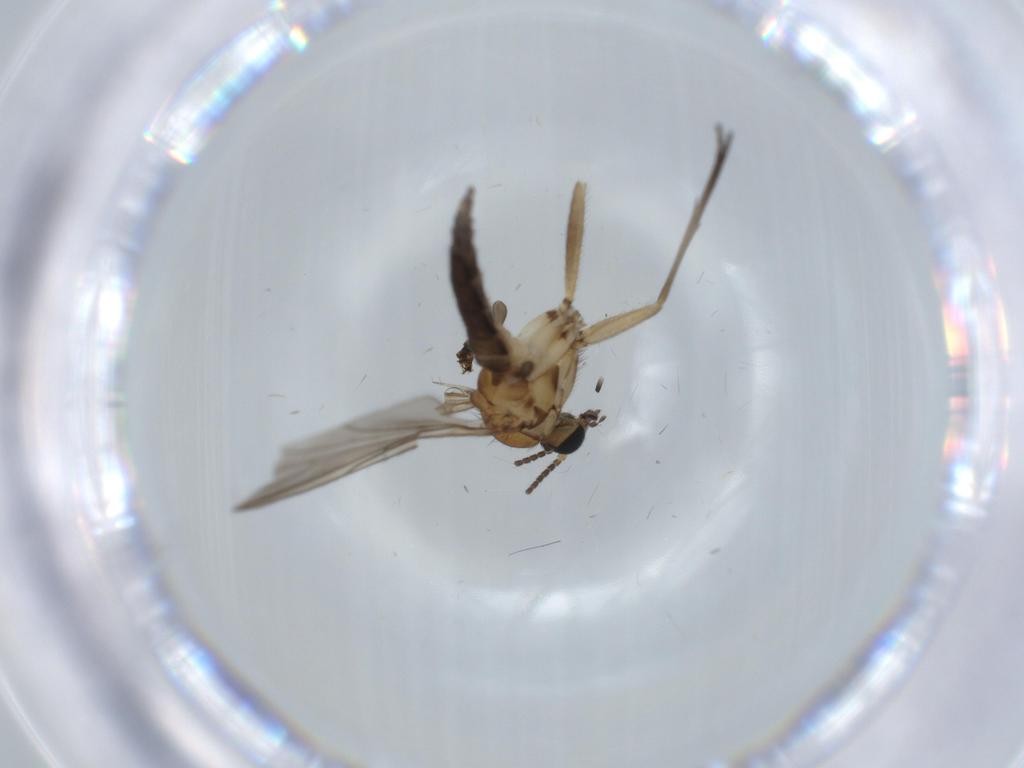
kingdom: Animalia
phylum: Arthropoda
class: Insecta
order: Diptera
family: Sciaridae
